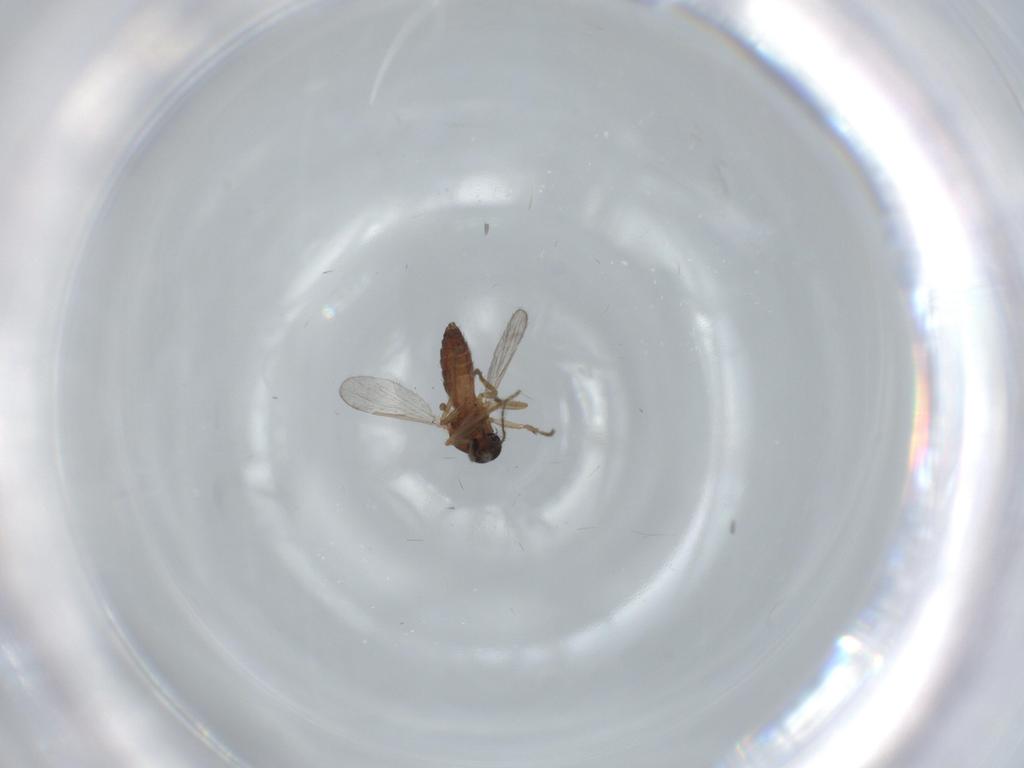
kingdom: Animalia
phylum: Arthropoda
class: Insecta
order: Diptera
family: Ceratopogonidae
